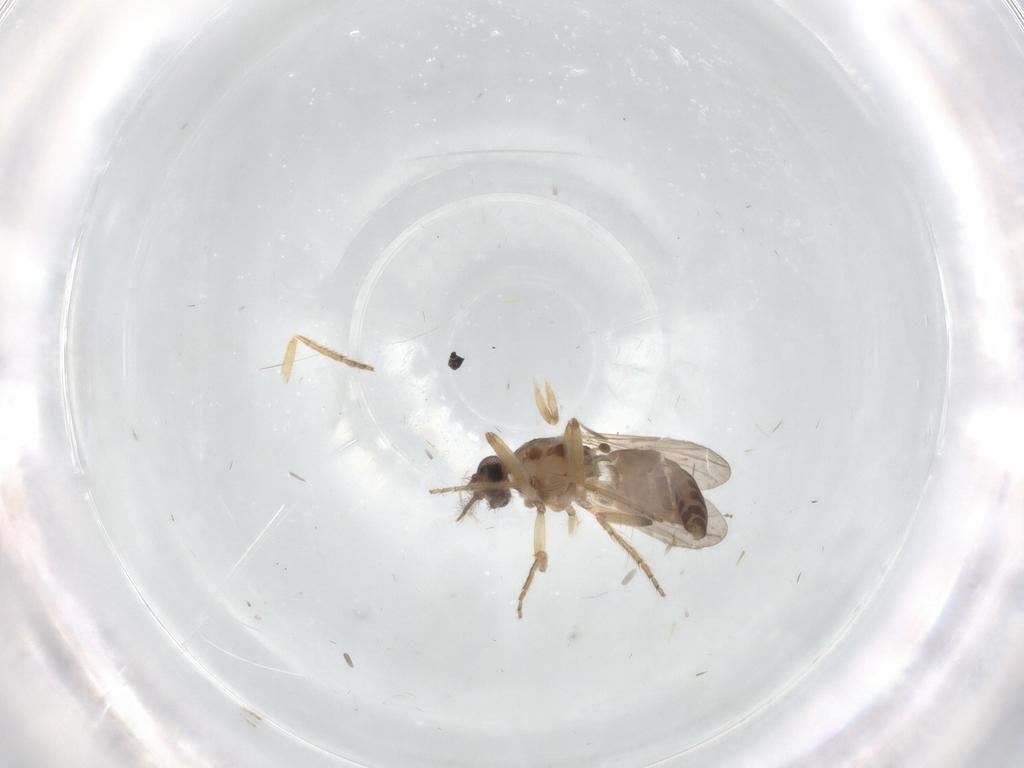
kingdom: Animalia
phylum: Arthropoda
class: Insecta
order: Diptera
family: Ceratopogonidae
